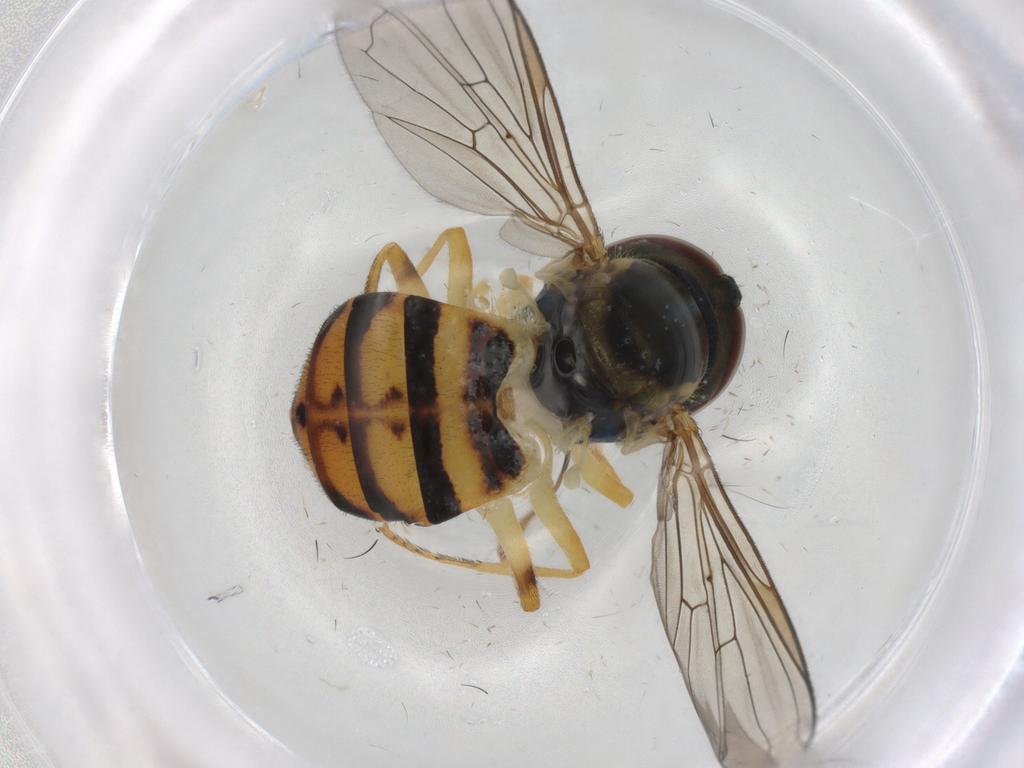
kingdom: Animalia
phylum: Arthropoda
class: Insecta
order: Diptera
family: Syrphidae
